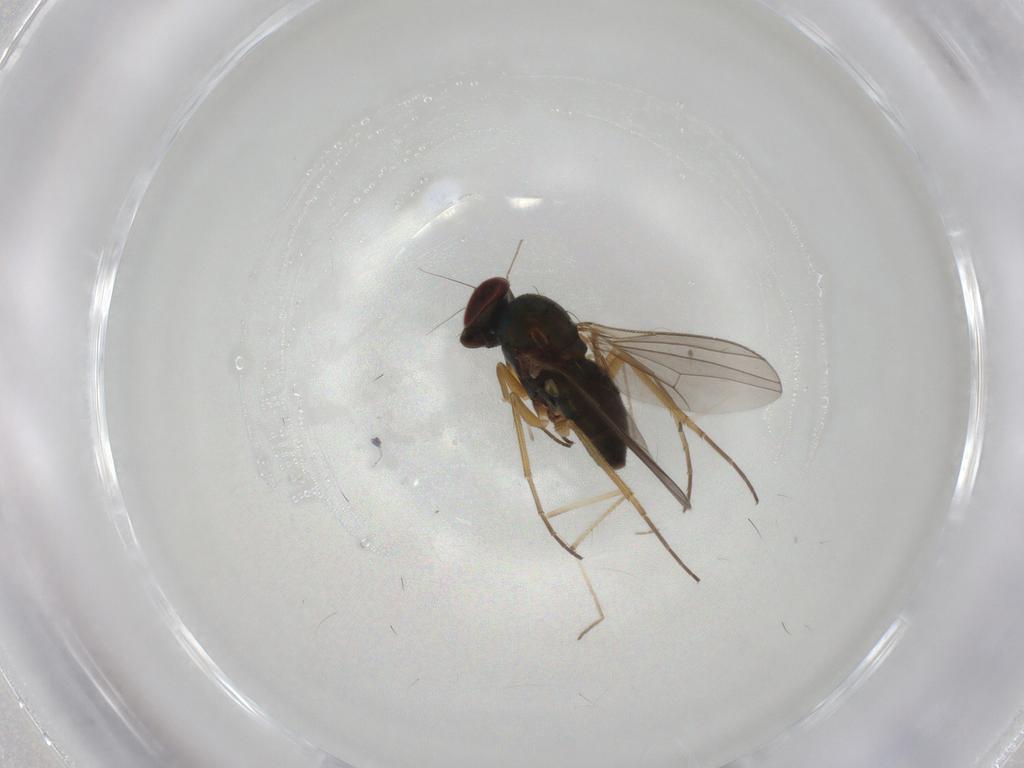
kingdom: Animalia
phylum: Arthropoda
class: Insecta
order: Diptera
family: Dolichopodidae
